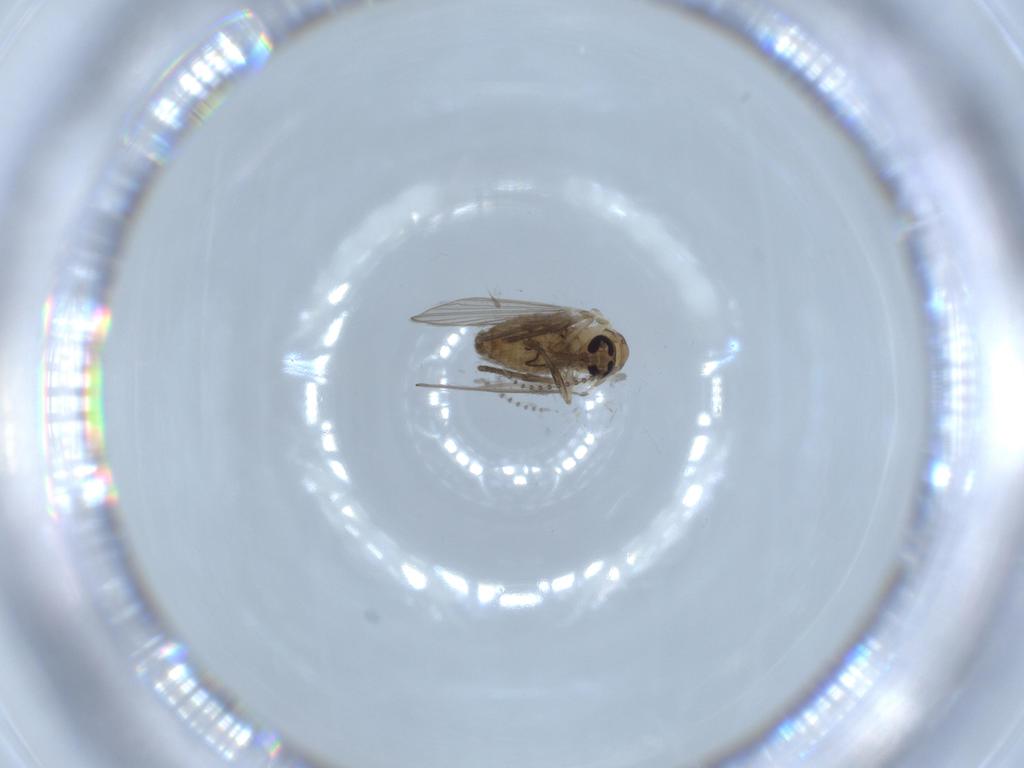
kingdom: Animalia
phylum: Arthropoda
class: Insecta
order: Diptera
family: Psychodidae
